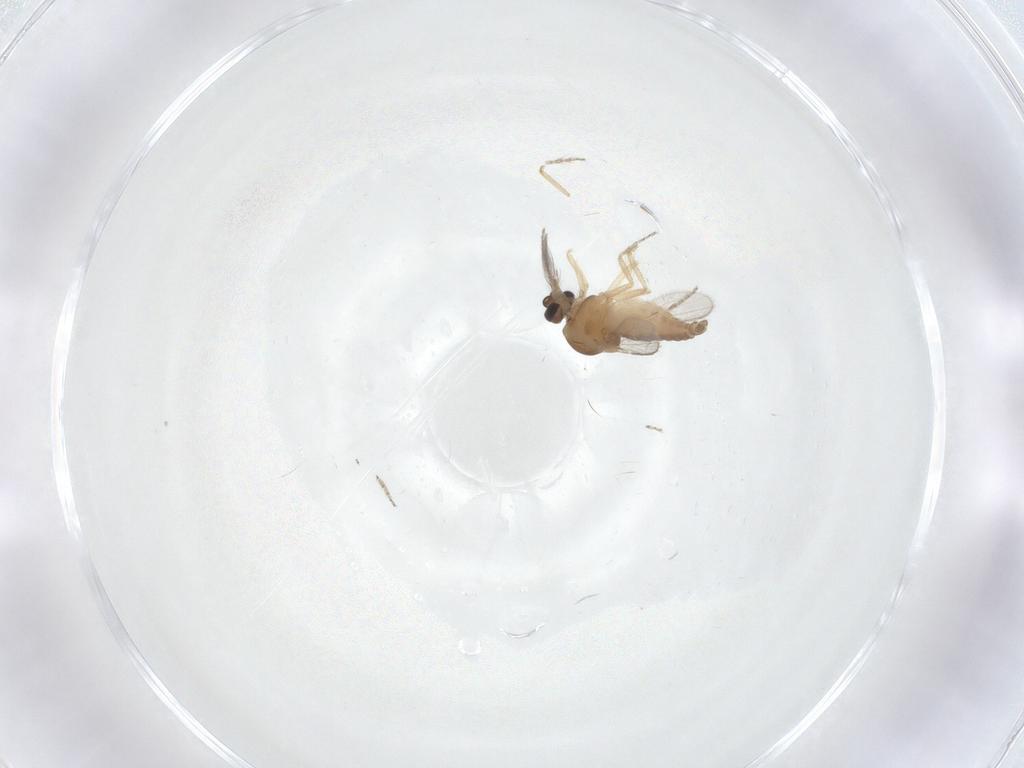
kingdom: Animalia
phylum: Arthropoda
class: Insecta
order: Diptera
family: Ceratopogonidae
